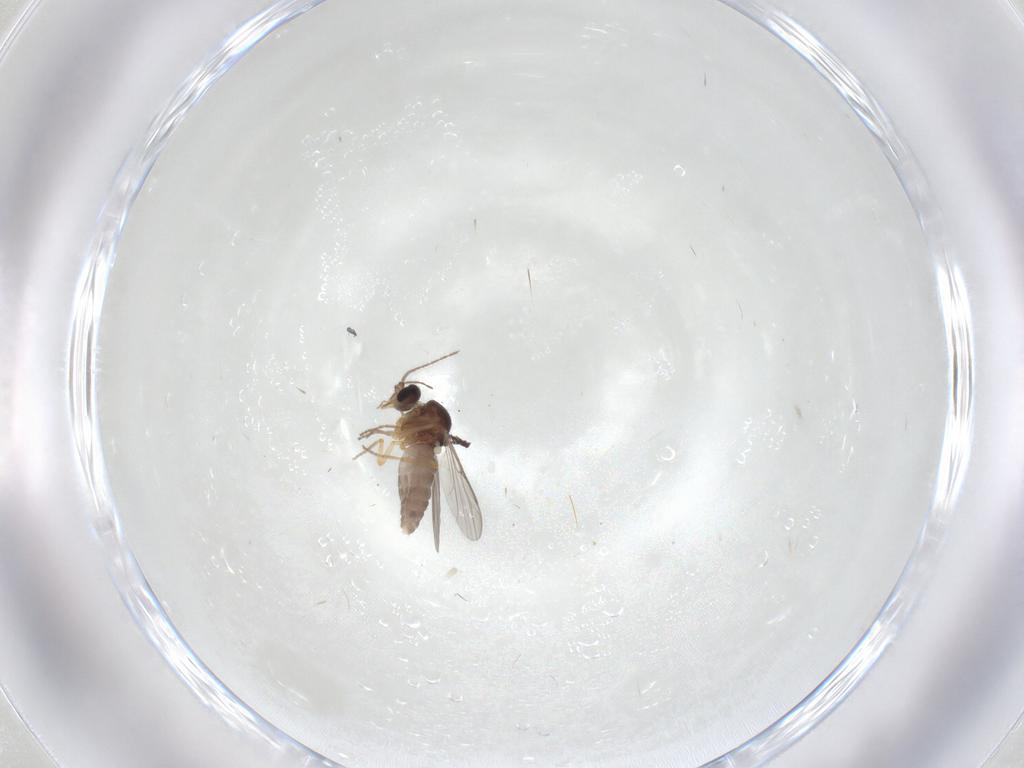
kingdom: Animalia
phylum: Arthropoda
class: Insecta
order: Diptera
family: Ceratopogonidae
